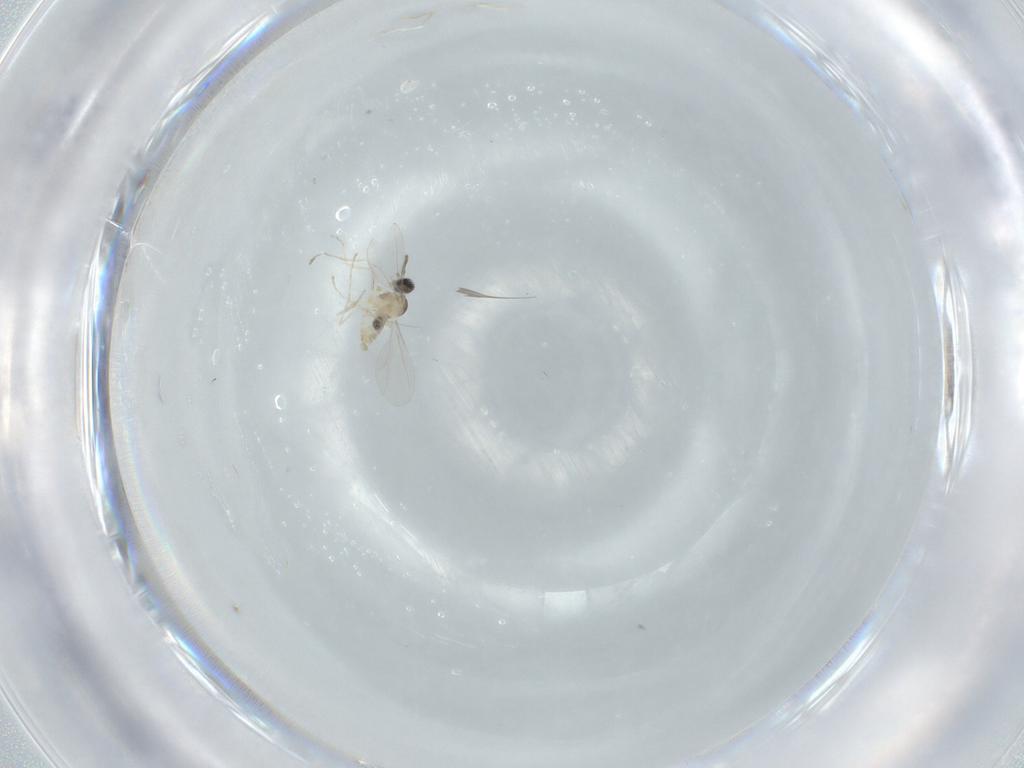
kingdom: Animalia
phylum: Arthropoda
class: Insecta
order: Diptera
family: Cecidomyiidae
